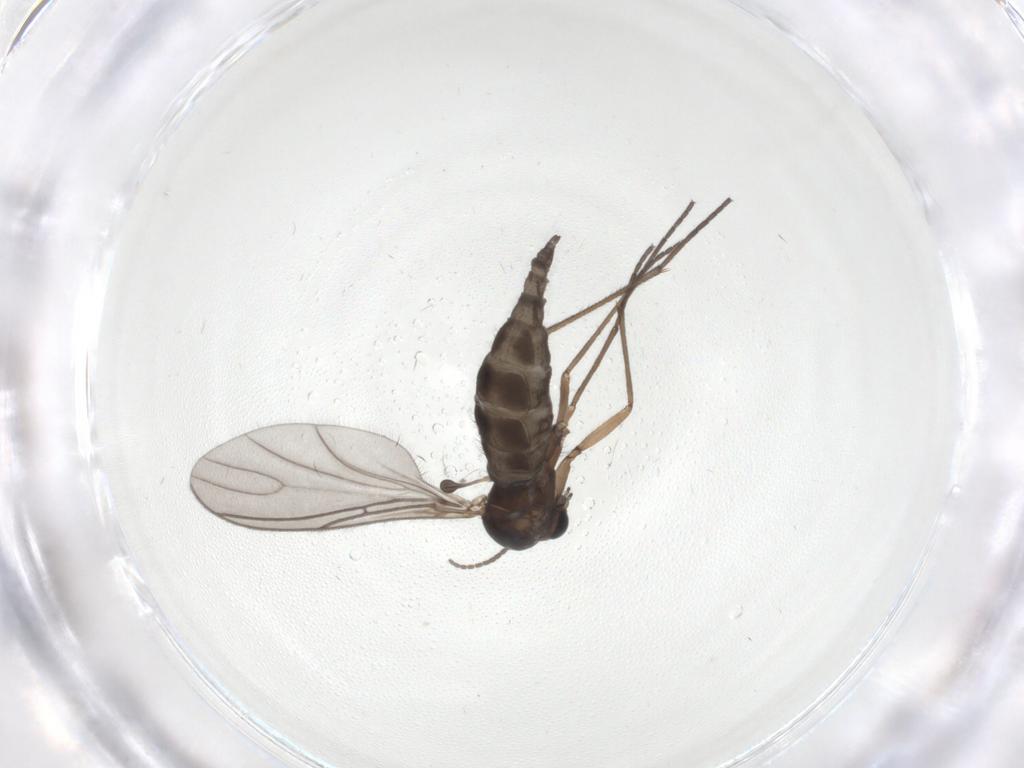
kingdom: Animalia
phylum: Arthropoda
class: Insecta
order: Diptera
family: Sciaridae
